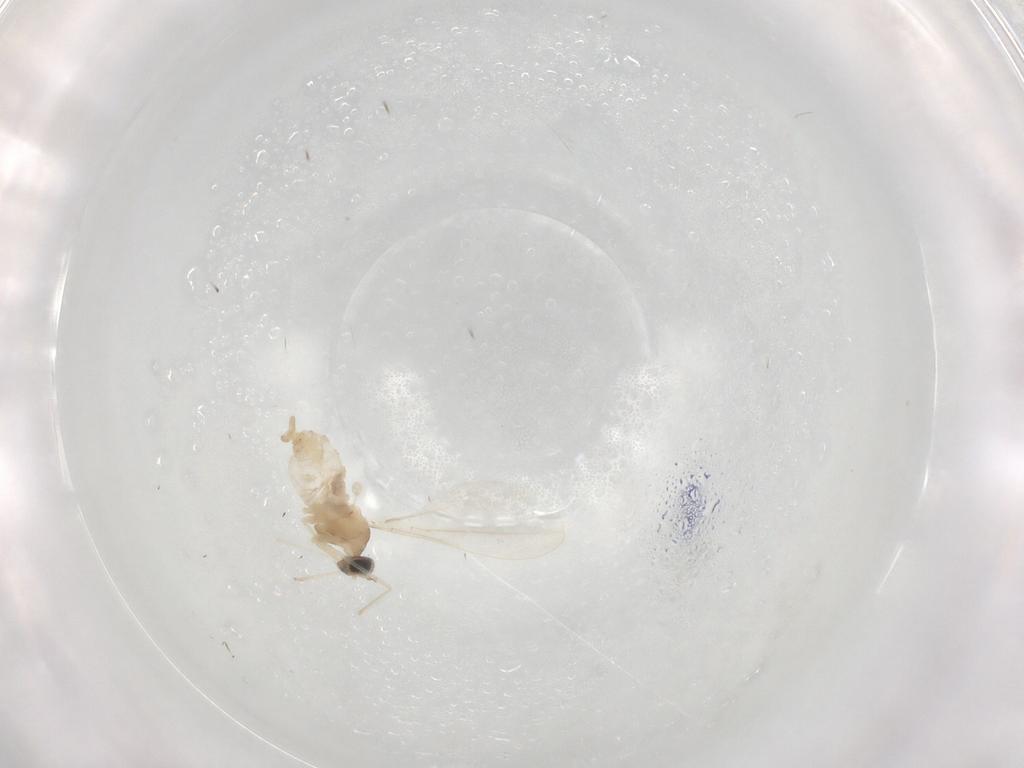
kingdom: Animalia
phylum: Arthropoda
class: Insecta
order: Diptera
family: Cecidomyiidae
